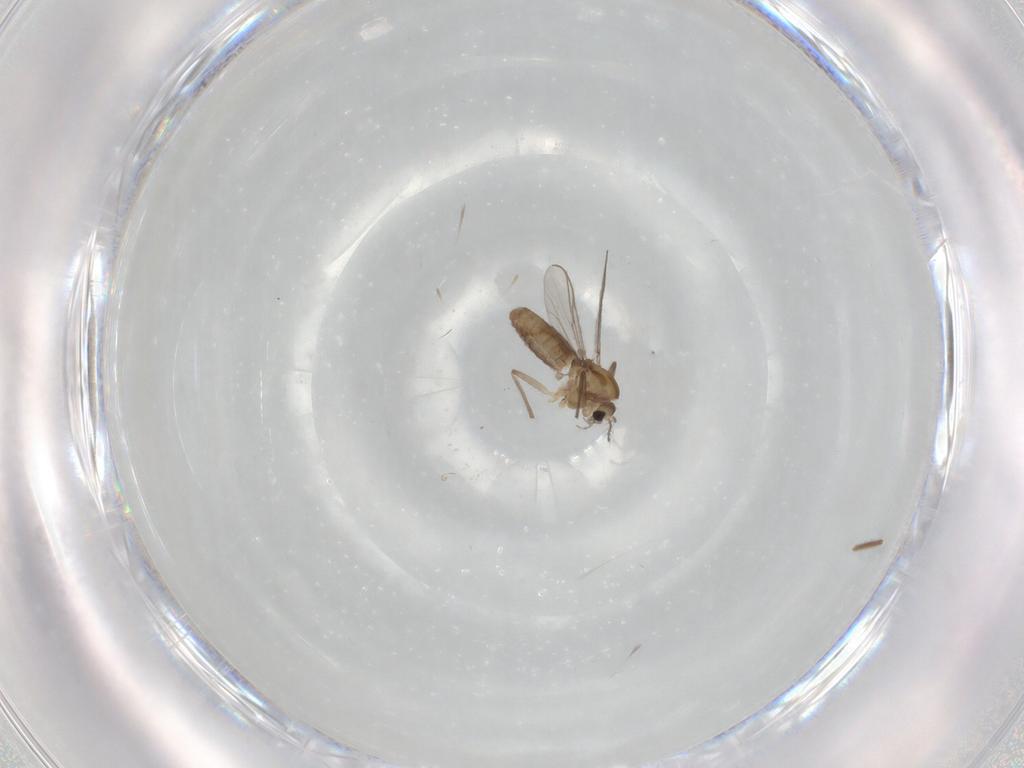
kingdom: Animalia
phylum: Arthropoda
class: Insecta
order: Diptera
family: Chironomidae
